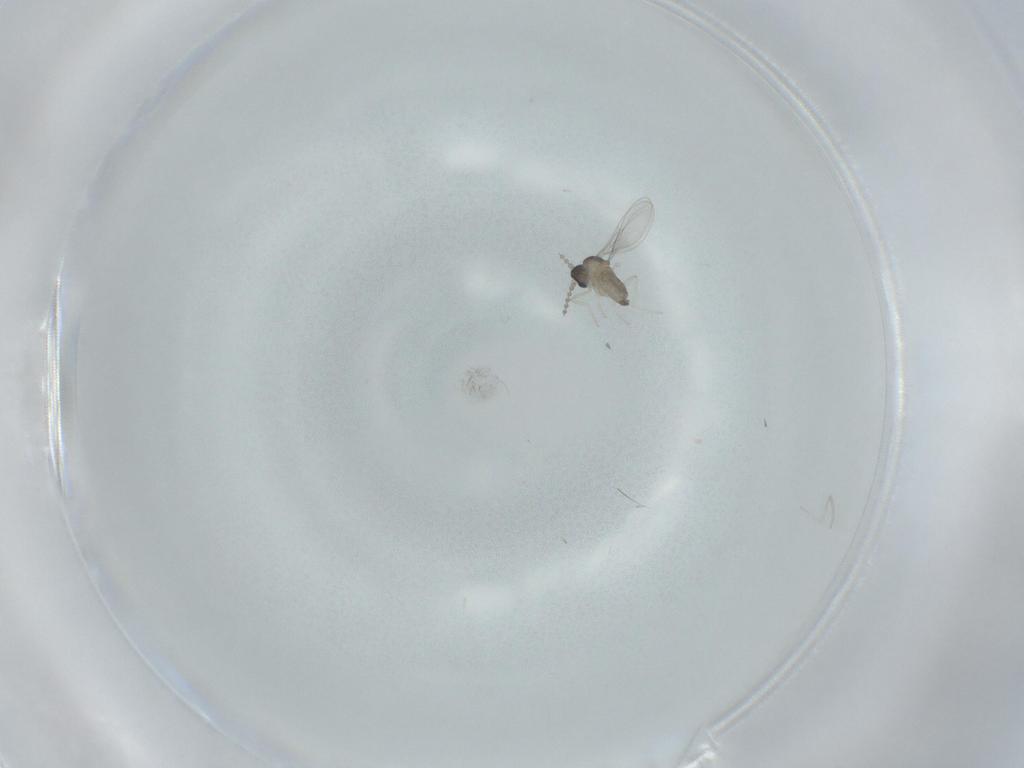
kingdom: Animalia
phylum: Arthropoda
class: Insecta
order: Diptera
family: Cecidomyiidae
